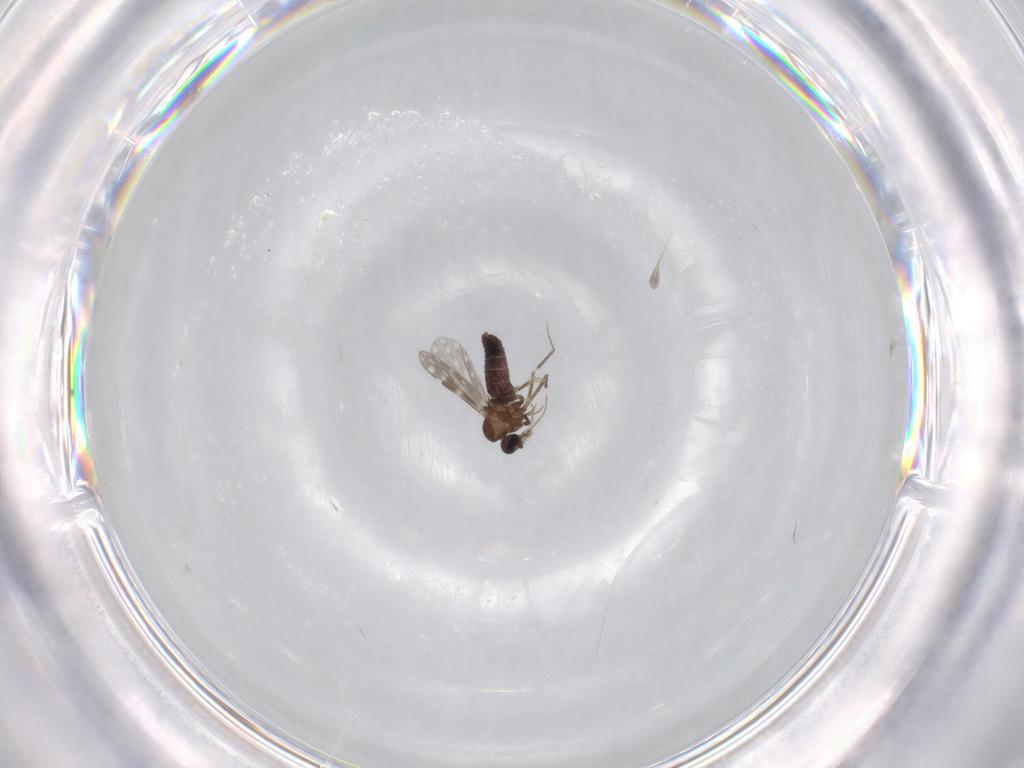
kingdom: Animalia
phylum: Arthropoda
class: Insecta
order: Diptera
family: Ceratopogonidae
